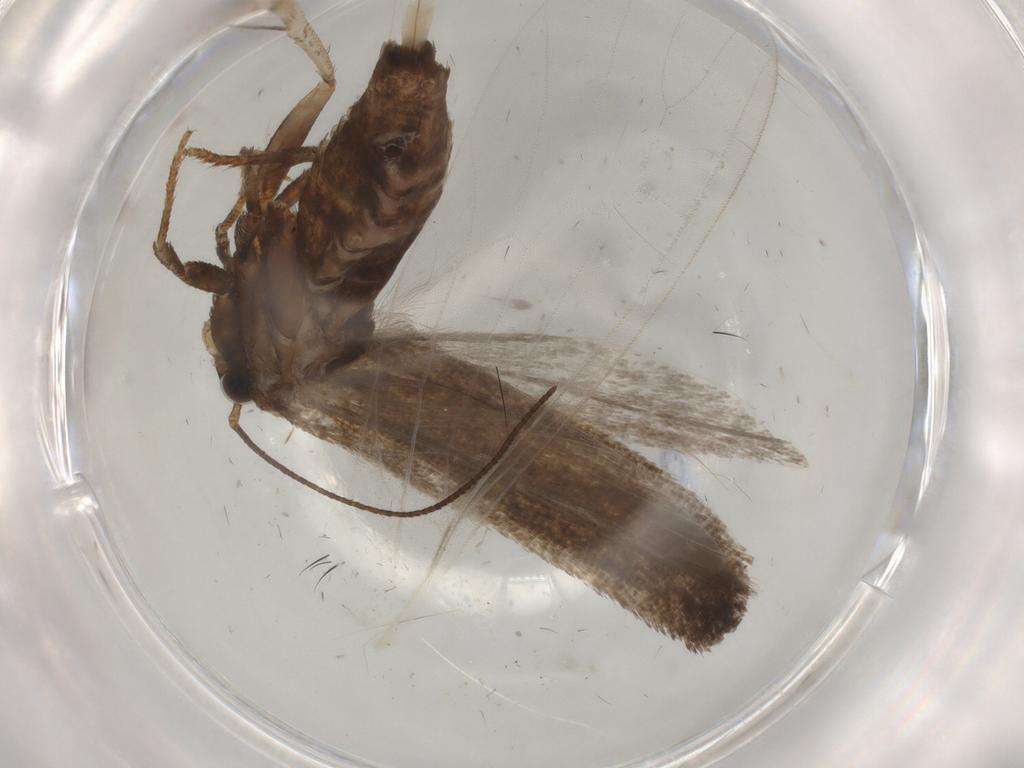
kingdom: Animalia
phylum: Arthropoda
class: Insecta
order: Lepidoptera
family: Gelechiidae
